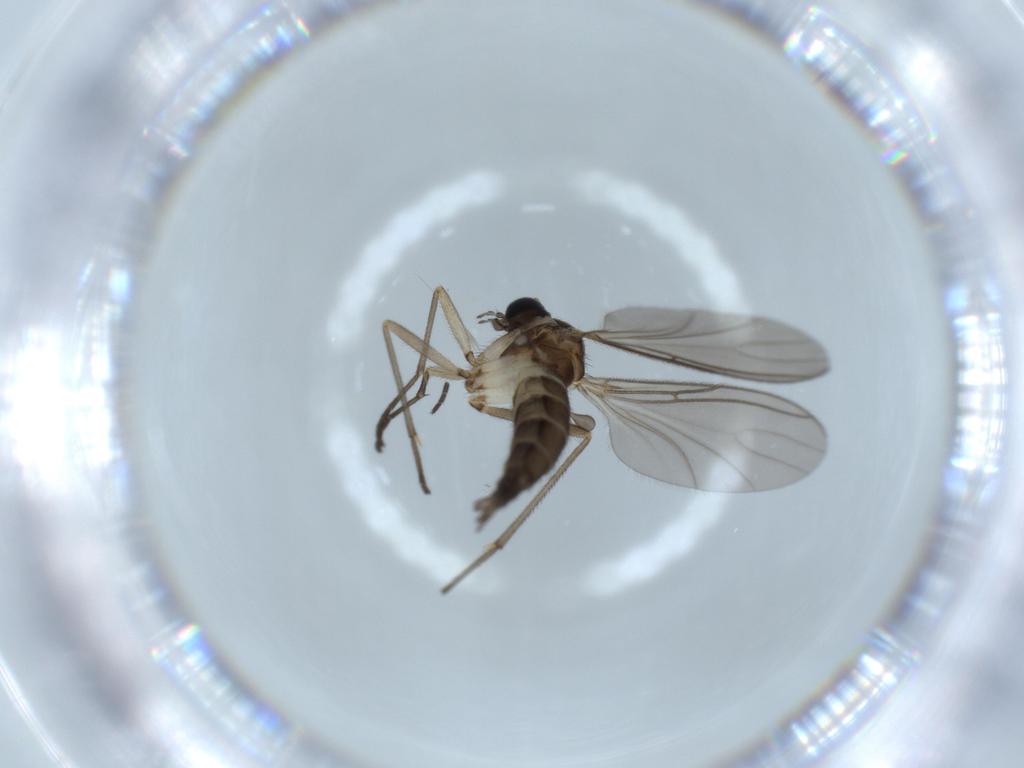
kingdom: Animalia
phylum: Arthropoda
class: Insecta
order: Diptera
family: Sciaridae
